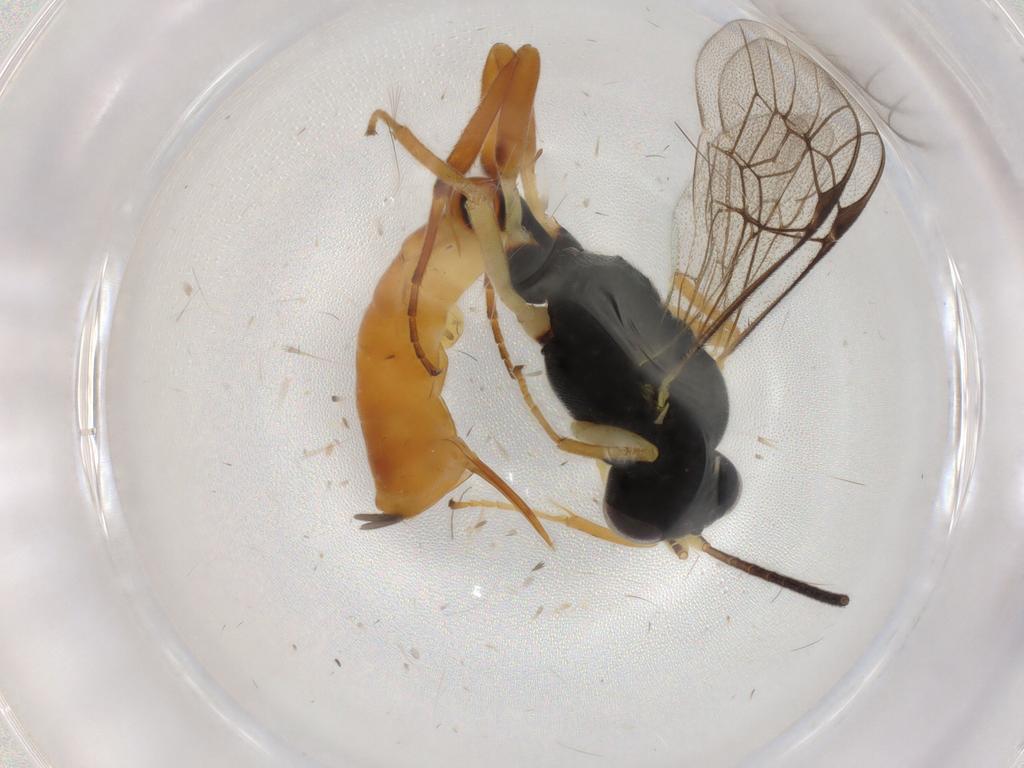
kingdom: Animalia
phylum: Arthropoda
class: Insecta
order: Hymenoptera
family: Ichneumonidae
